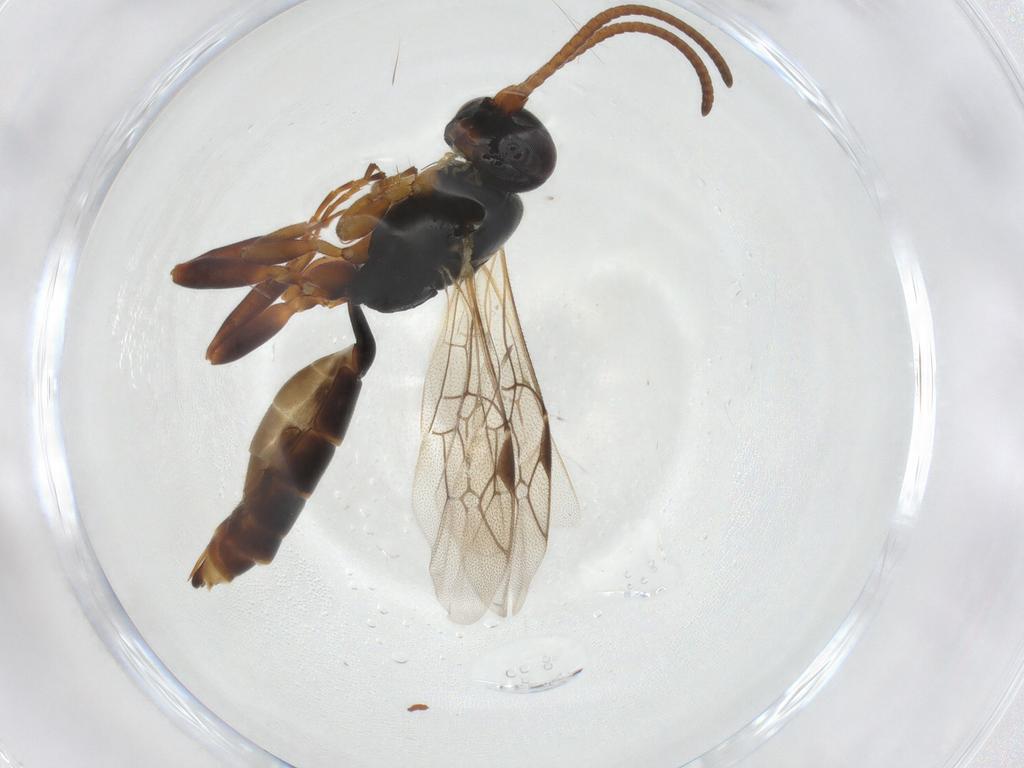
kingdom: Animalia
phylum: Arthropoda
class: Insecta
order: Hymenoptera
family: Ichneumonidae
